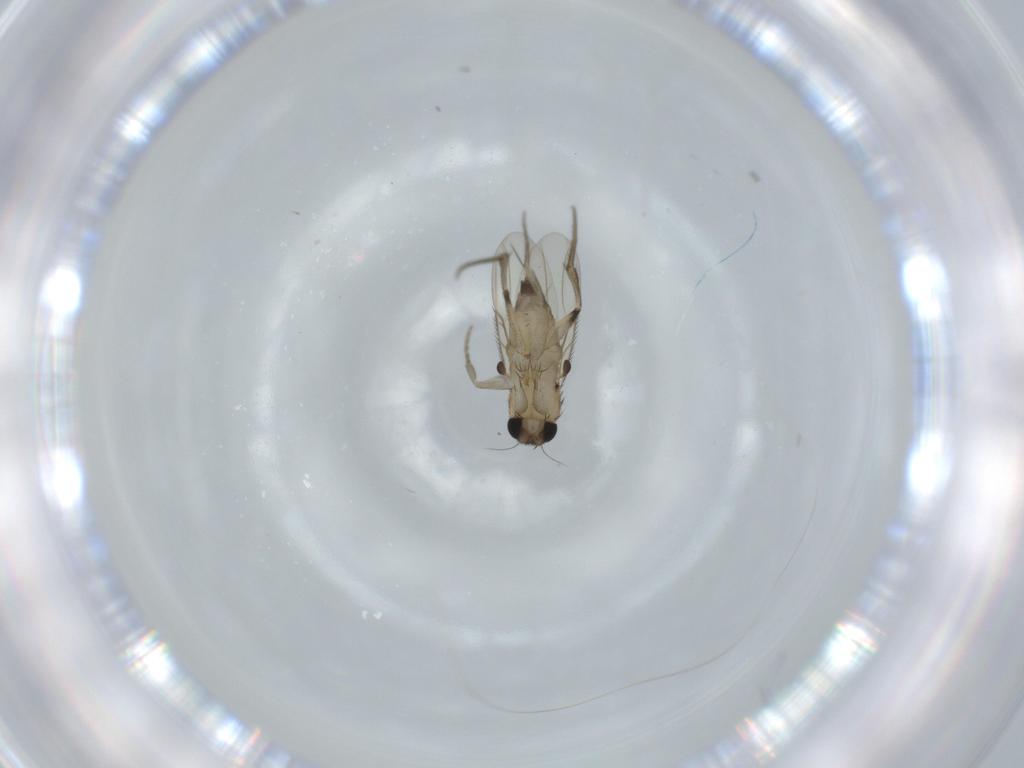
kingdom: Animalia
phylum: Arthropoda
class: Insecta
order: Diptera
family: Phoridae
